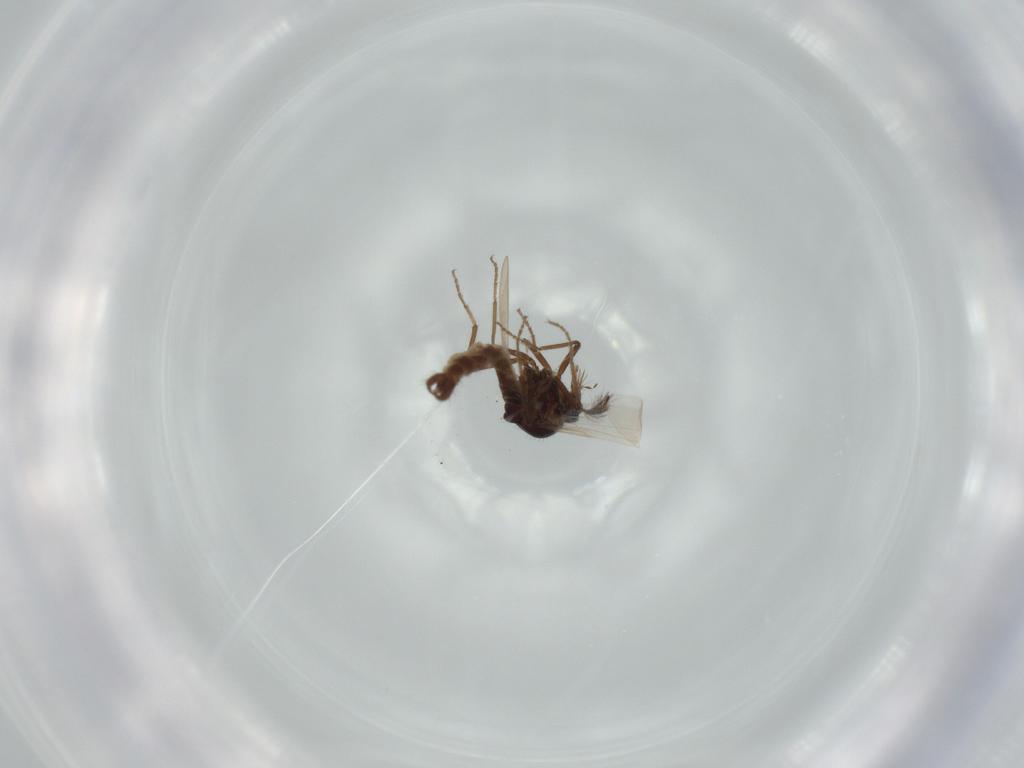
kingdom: Animalia
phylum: Arthropoda
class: Insecta
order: Diptera
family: Ceratopogonidae
